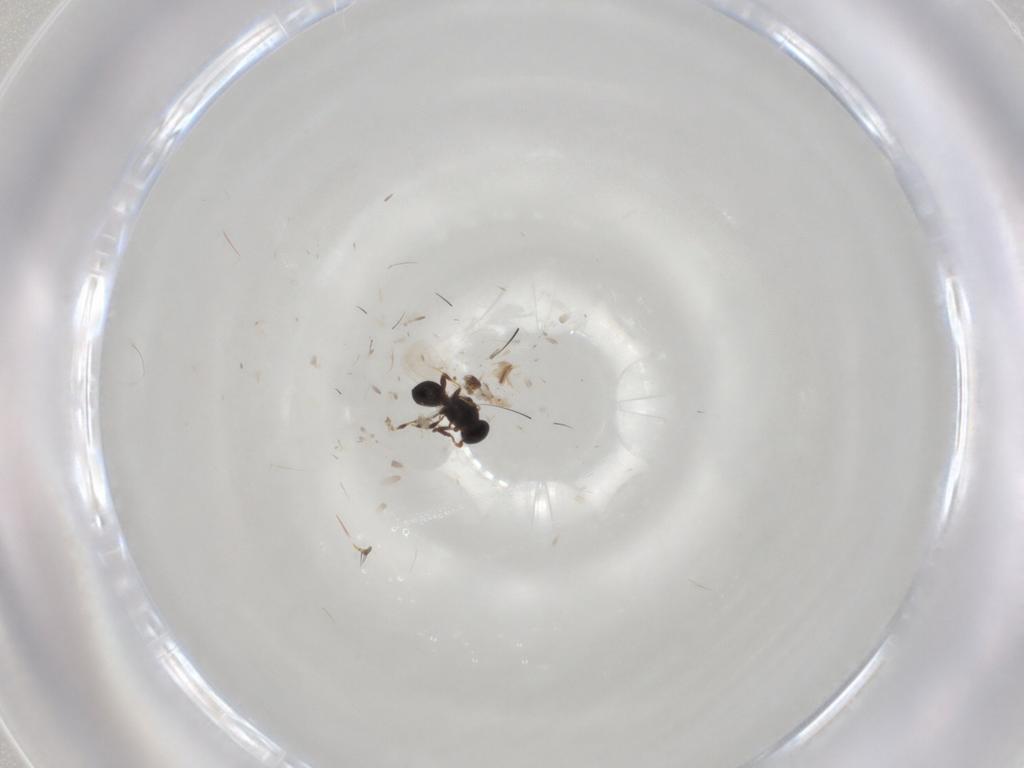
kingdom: Animalia
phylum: Arthropoda
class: Insecta
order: Hymenoptera
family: Platygastridae
